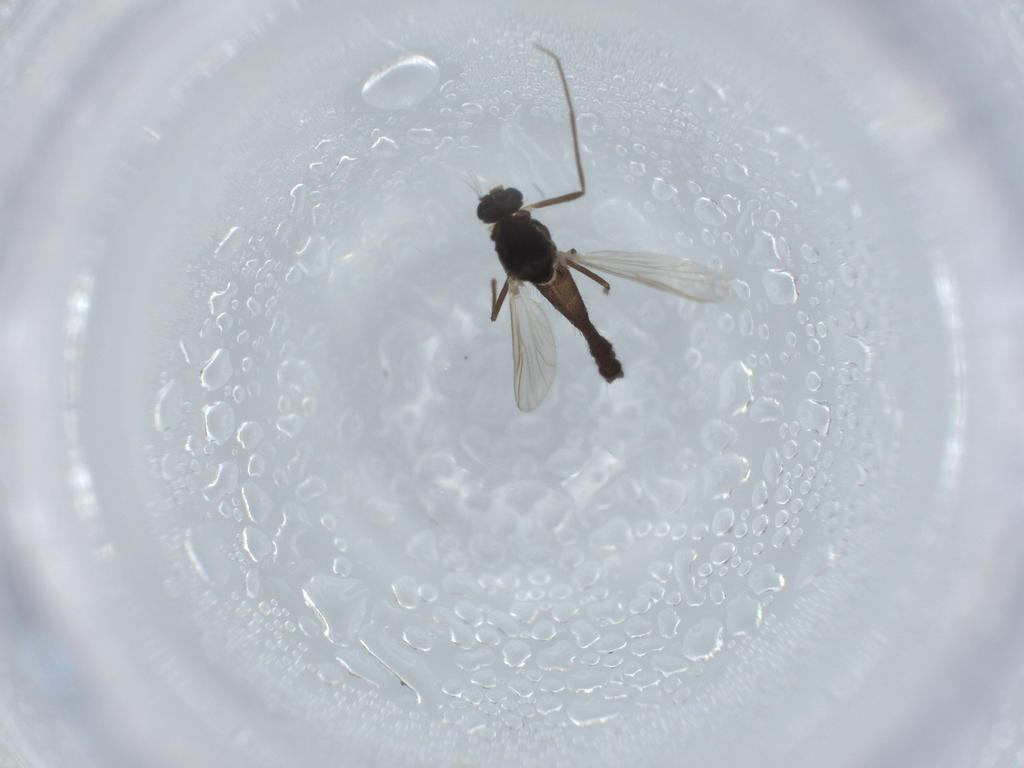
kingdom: Animalia
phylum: Arthropoda
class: Insecta
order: Diptera
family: Chironomidae
